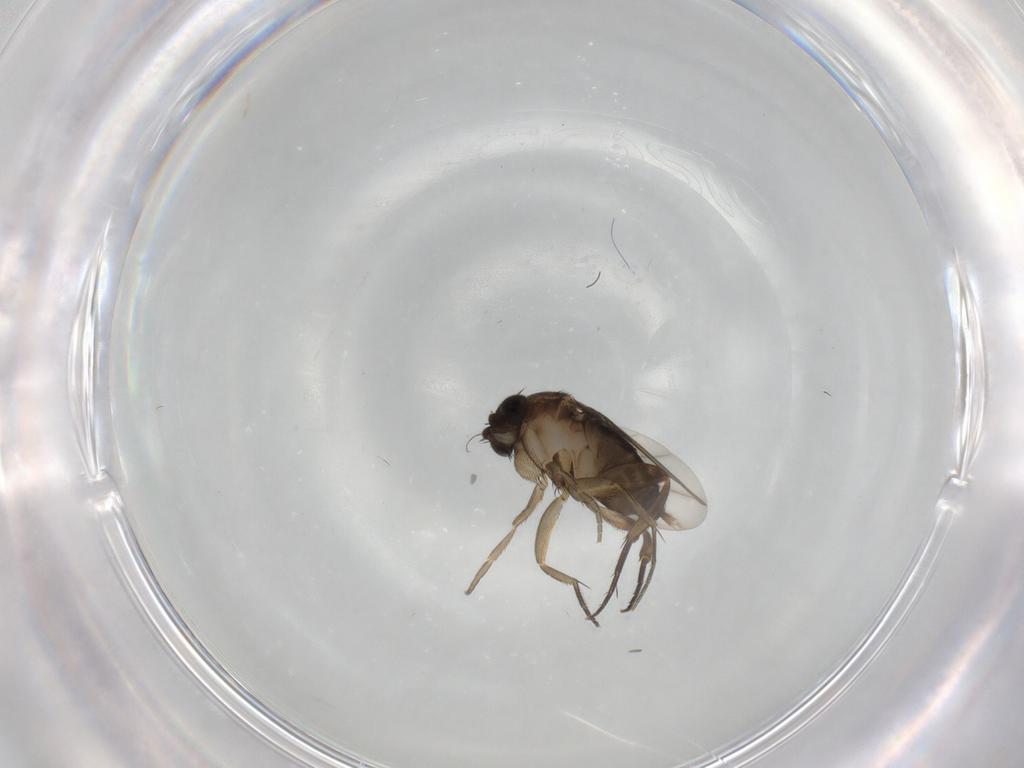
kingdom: Animalia
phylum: Arthropoda
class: Insecta
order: Diptera
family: Phoridae
